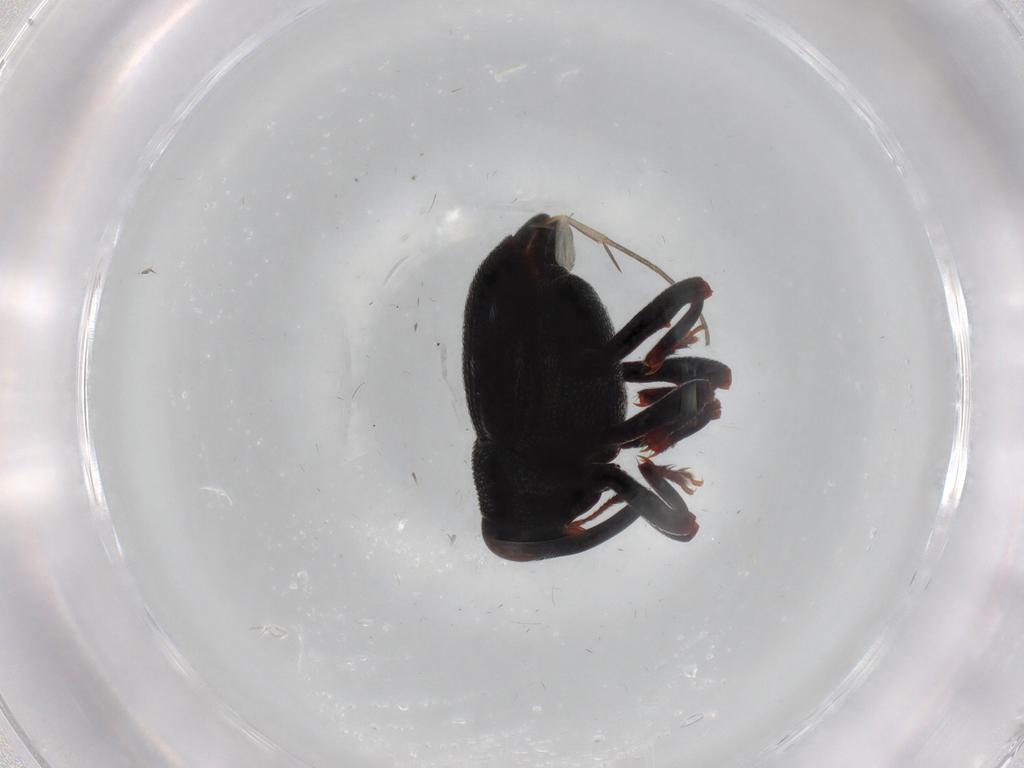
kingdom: Animalia
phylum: Arthropoda
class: Insecta
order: Coleoptera
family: Curculionidae
